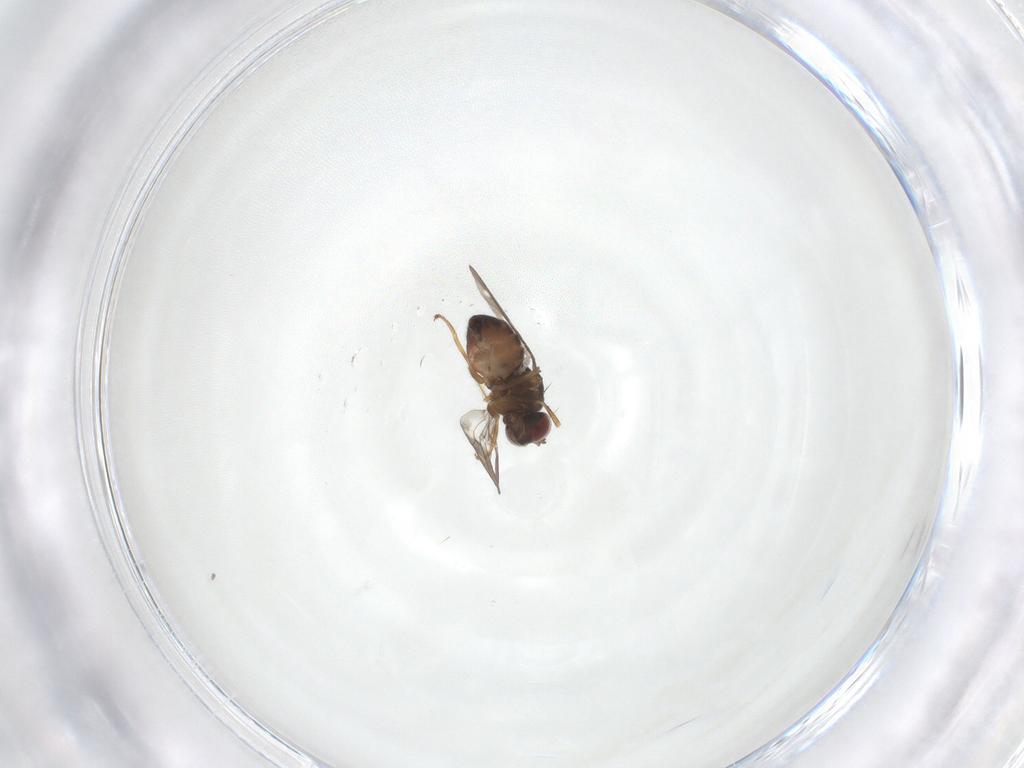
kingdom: Animalia
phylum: Arthropoda
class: Insecta
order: Diptera
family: Ephydridae
